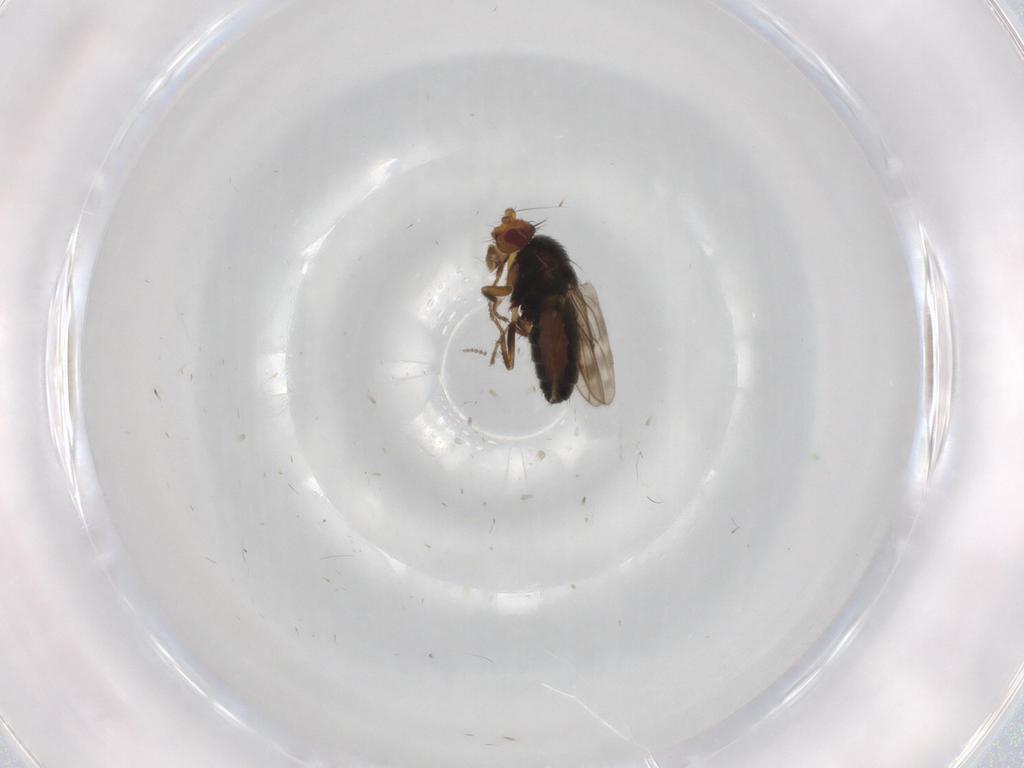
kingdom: Animalia
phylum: Arthropoda
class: Insecta
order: Diptera
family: Sphaeroceridae
